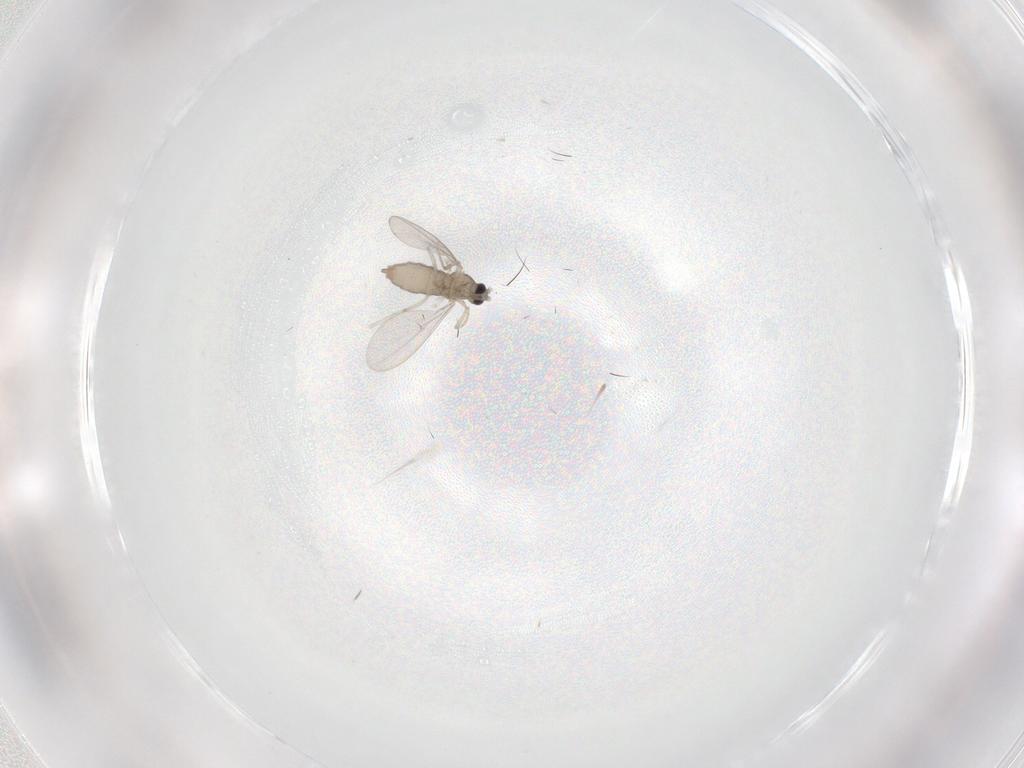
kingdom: Animalia
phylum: Arthropoda
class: Insecta
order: Diptera
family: Cecidomyiidae
